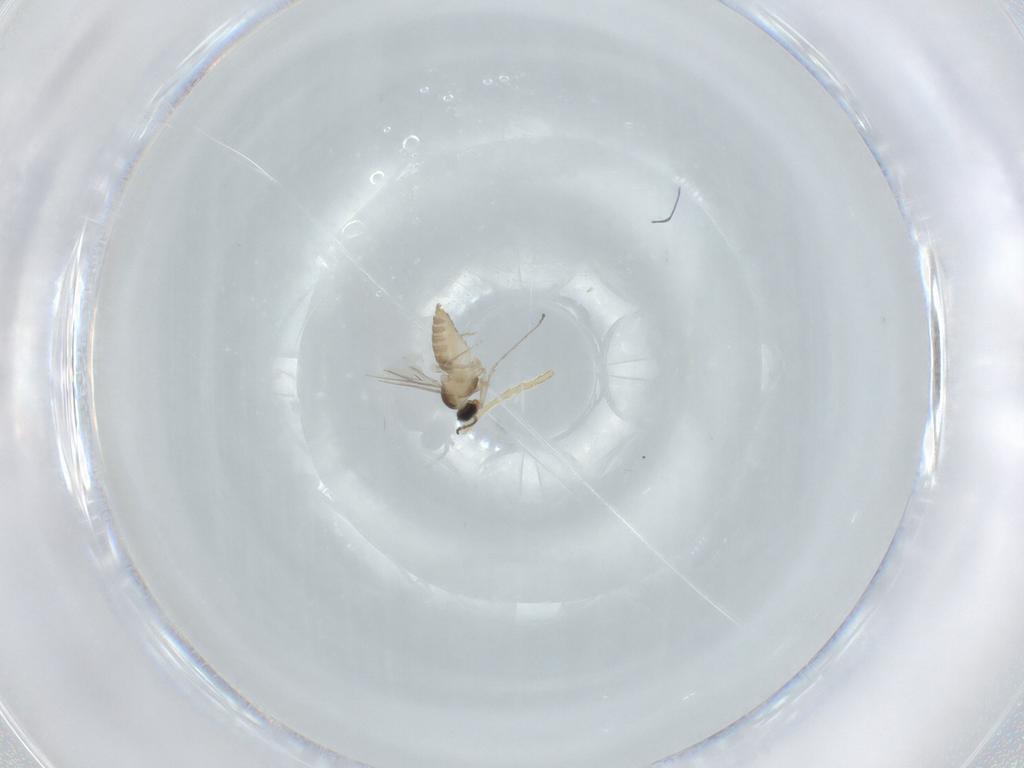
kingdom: Animalia
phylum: Arthropoda
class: Insecta
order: Diptera
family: Cecidomyiidae
